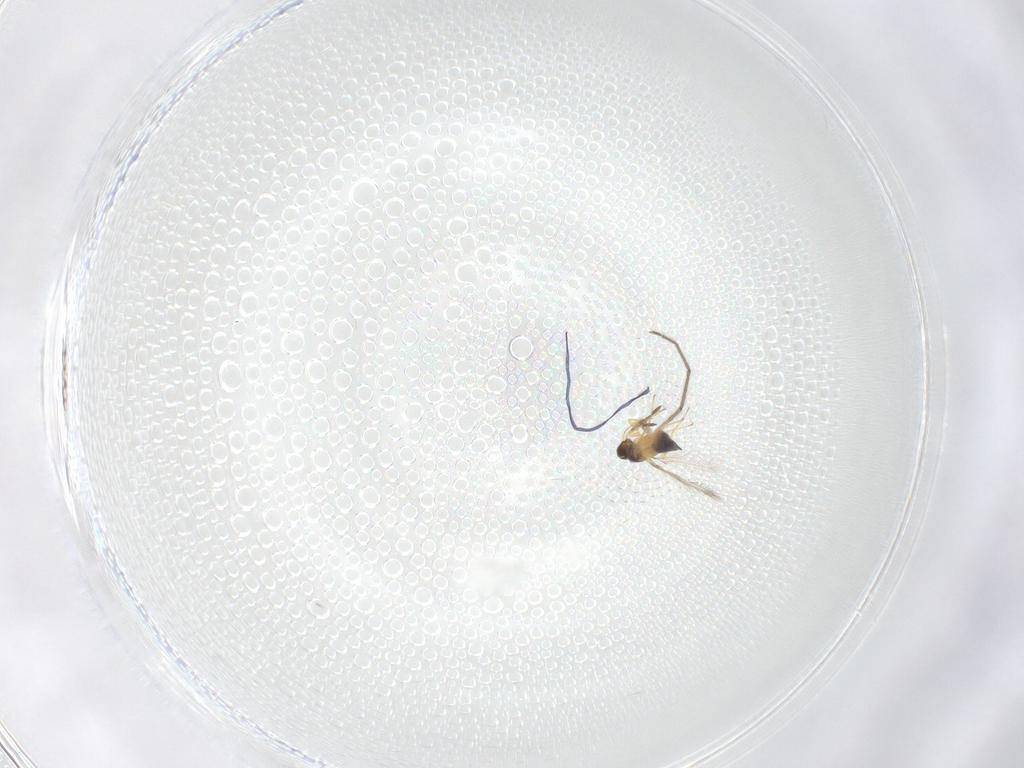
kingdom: Animalia
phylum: Arthropoda
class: Insecta
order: Hymenoptera
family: Mymaridae
